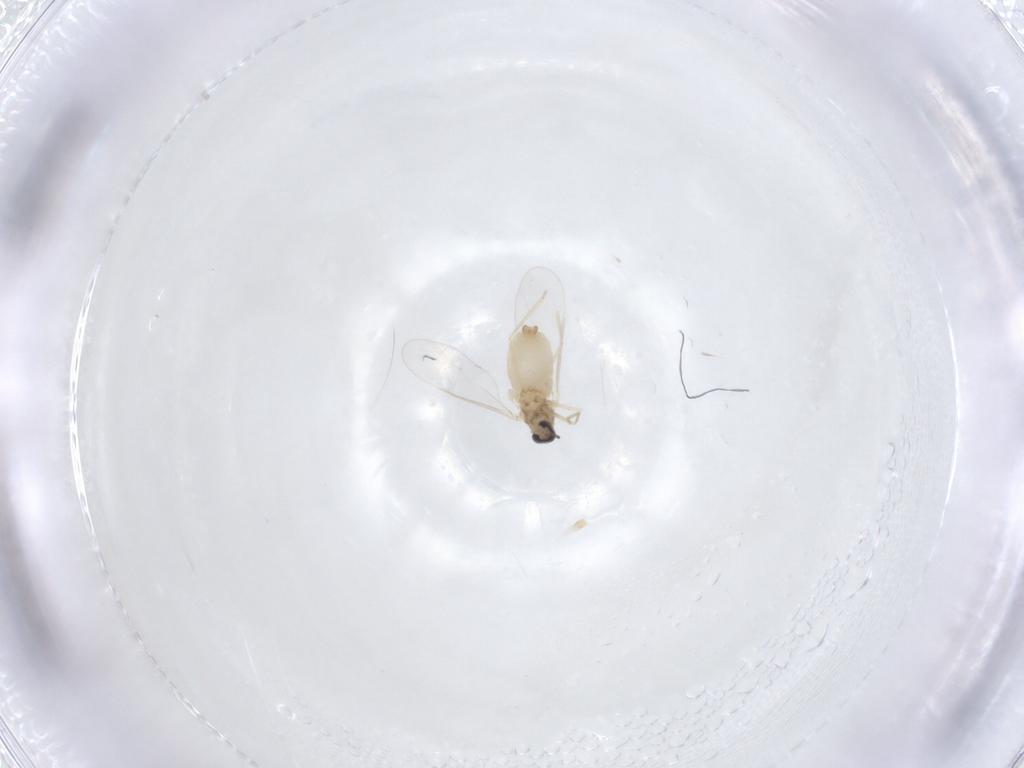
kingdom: Animalia
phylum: Arthropoda
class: Insecta
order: Diptera
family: Cecidomyiidae
